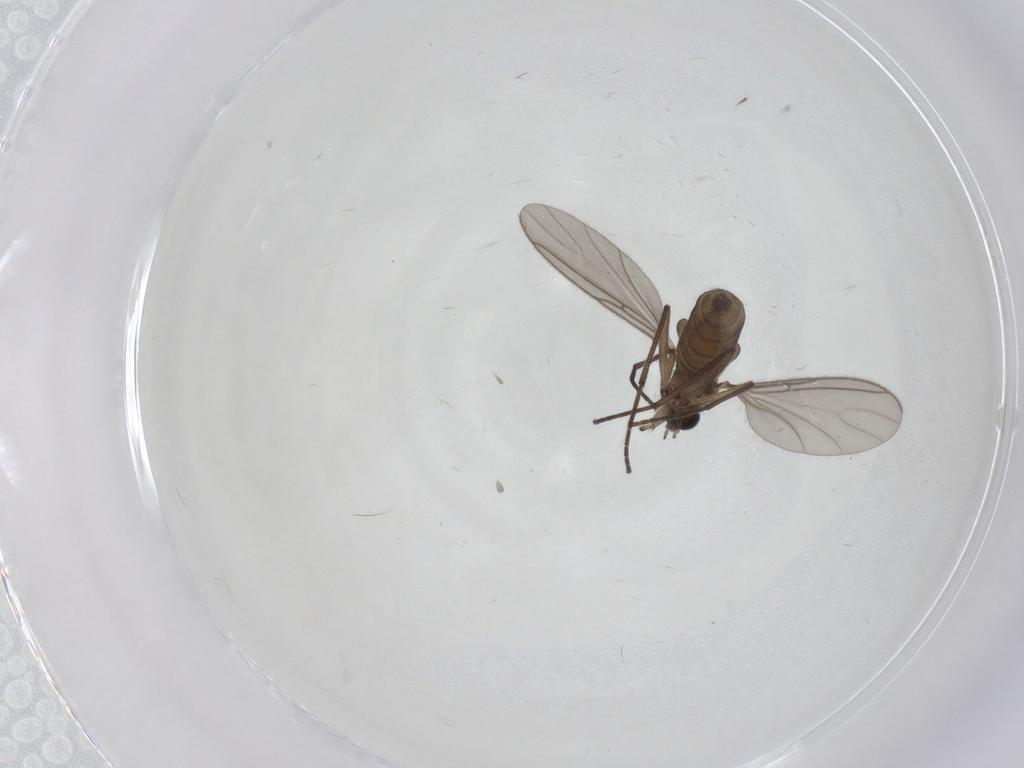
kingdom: Animalia
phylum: Arthropoda
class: Insecta
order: Diptera
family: Sciaridae
